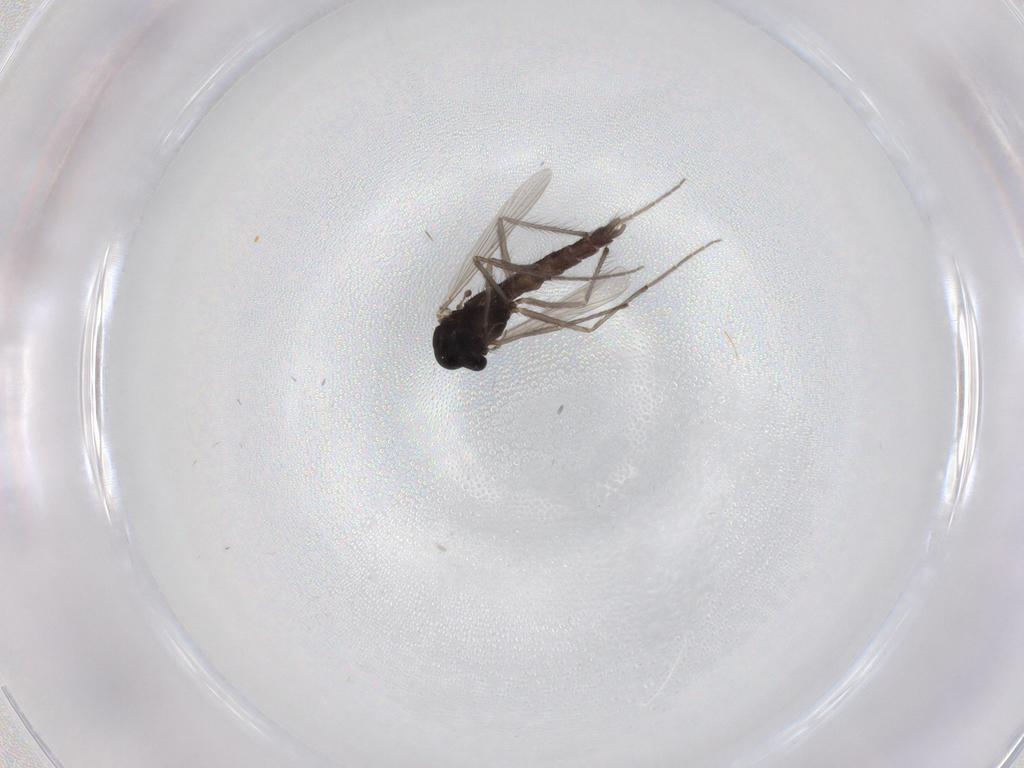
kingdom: Animalia
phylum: Arthropoda
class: Insecta
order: Diptera
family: Chironomidae
